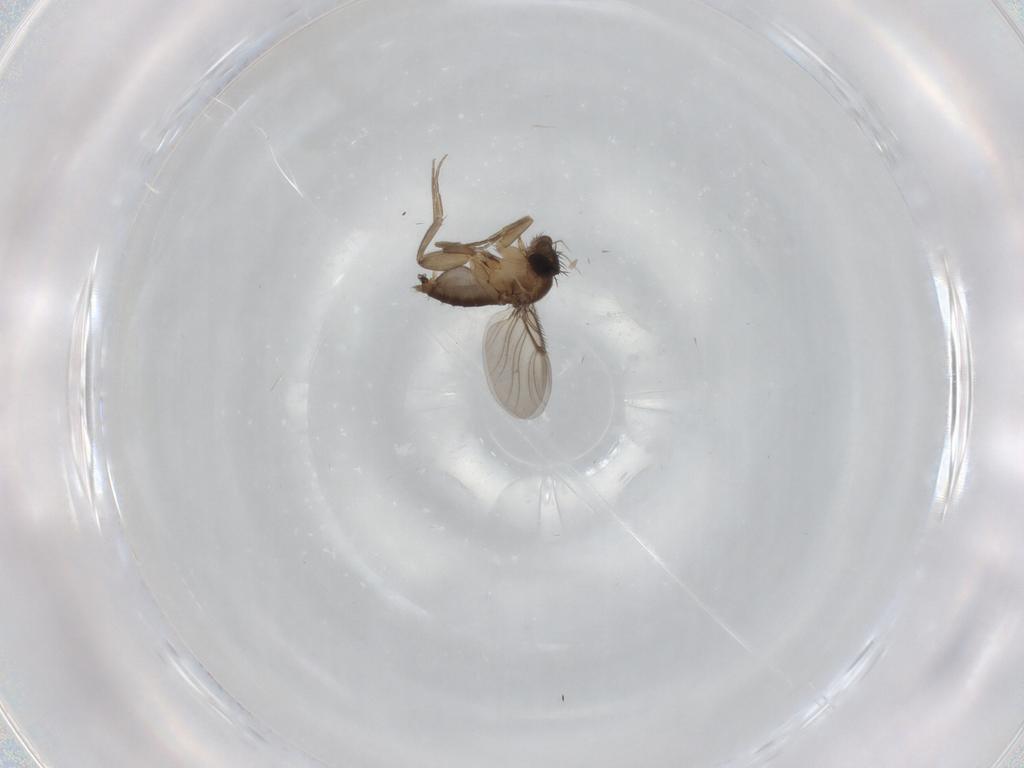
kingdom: Animalia
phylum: Arthropoda
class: Insecta
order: Diptera
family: Phoridae
